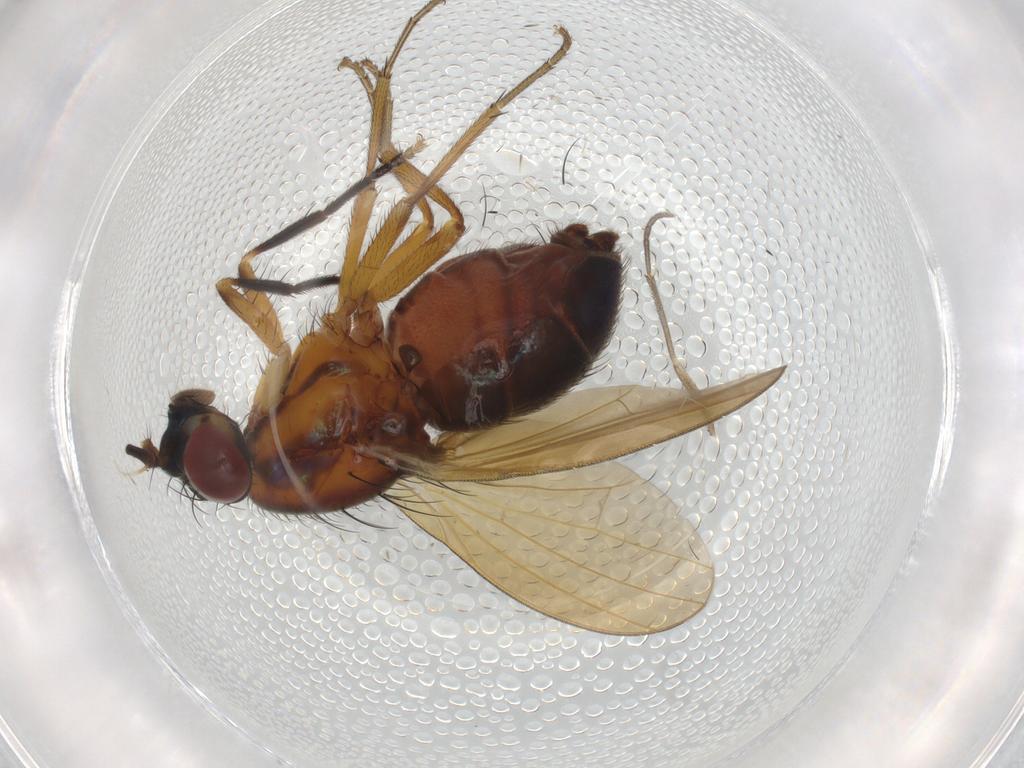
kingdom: Animalia
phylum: Arthropoda
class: Insecta
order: Diptera
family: Lauxaniidae
